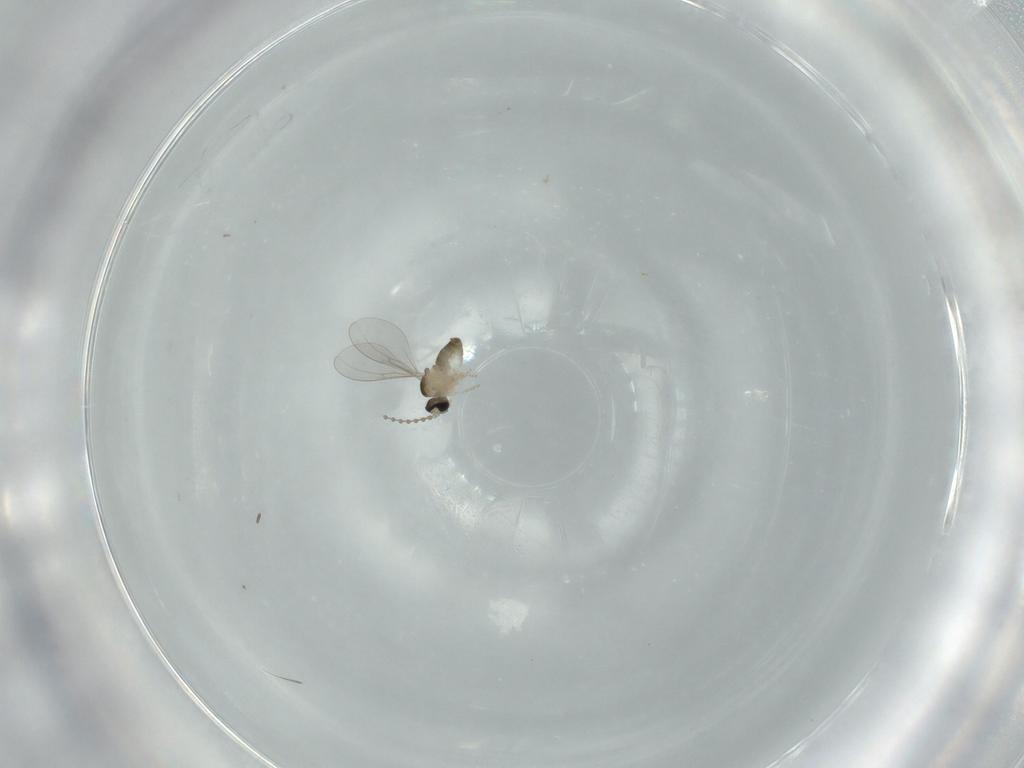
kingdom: Animalia
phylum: Arthropoda
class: Insecta
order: Diptera
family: Cecidomyiidae
